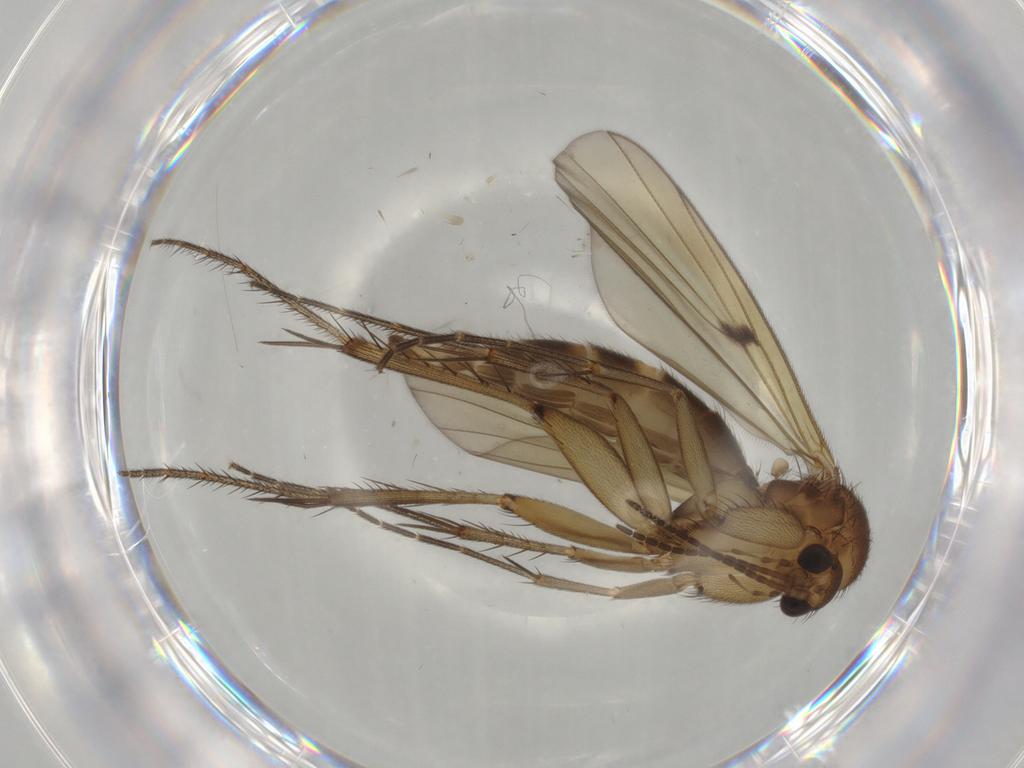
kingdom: Animalia
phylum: Arthropoda
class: Insecta
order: Diptera
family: Mycetophilidae
